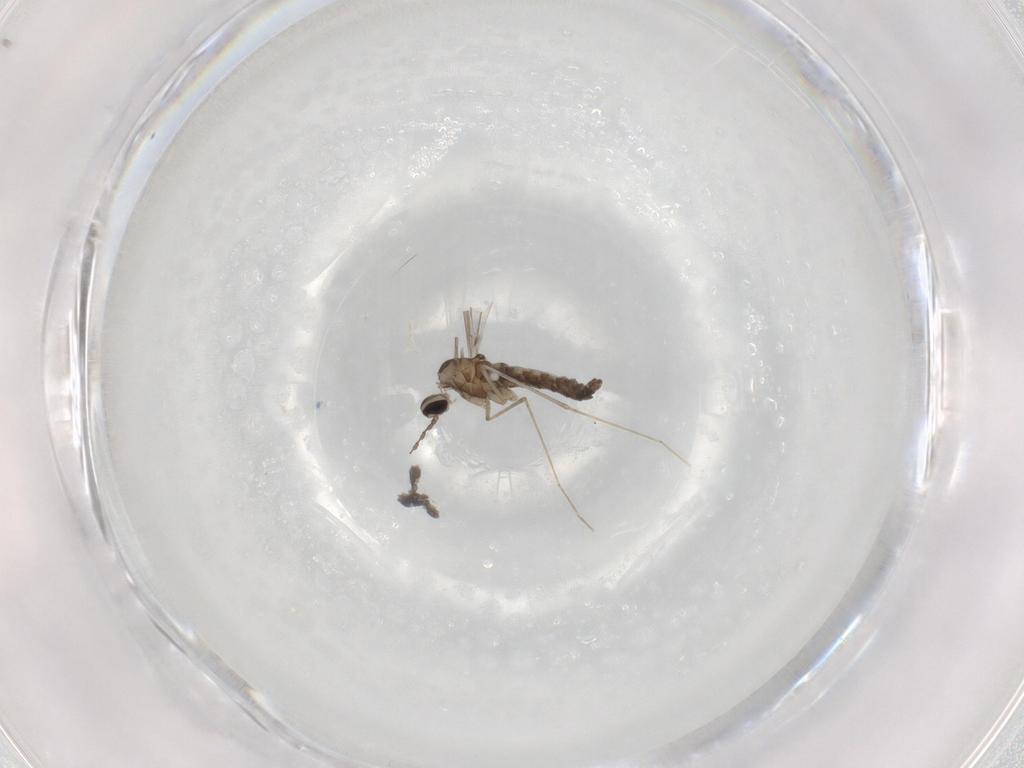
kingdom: Animalia
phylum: Arthropoda
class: Insecta
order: Diptera
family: Cecidomyiidae
